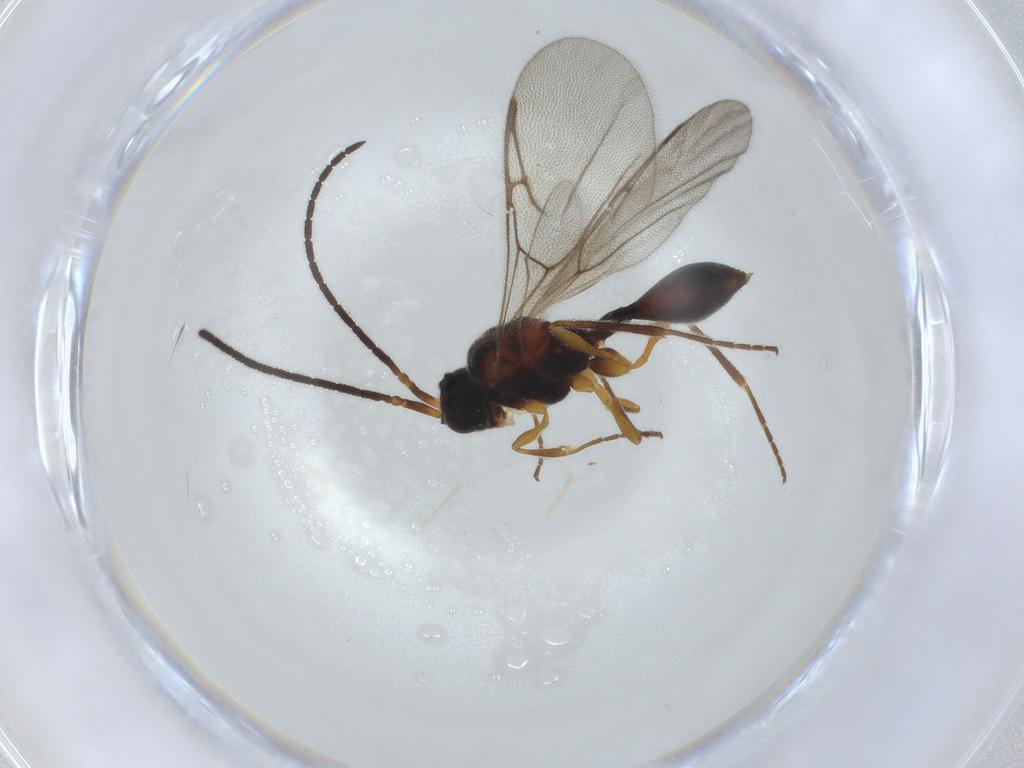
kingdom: Animalia
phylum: Arthropoda
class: Insecta
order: Hymenoptera
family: Diapriidae
